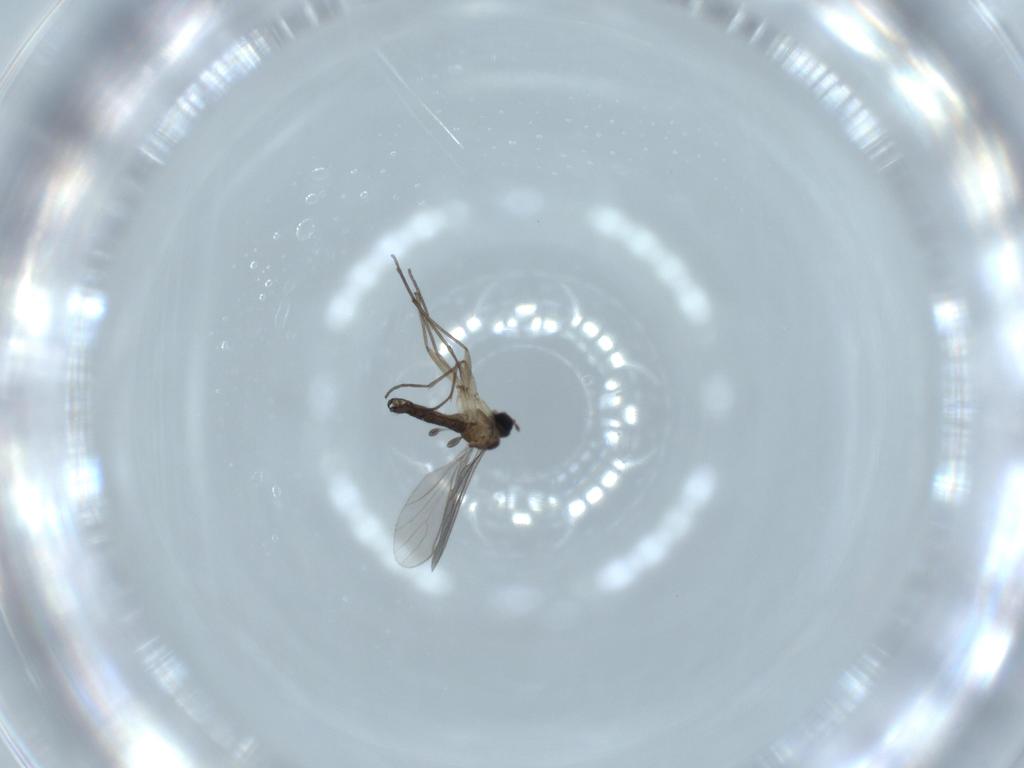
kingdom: Animalia
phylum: Arthropoda
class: Insecta
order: Diptera
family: Sciaridae
